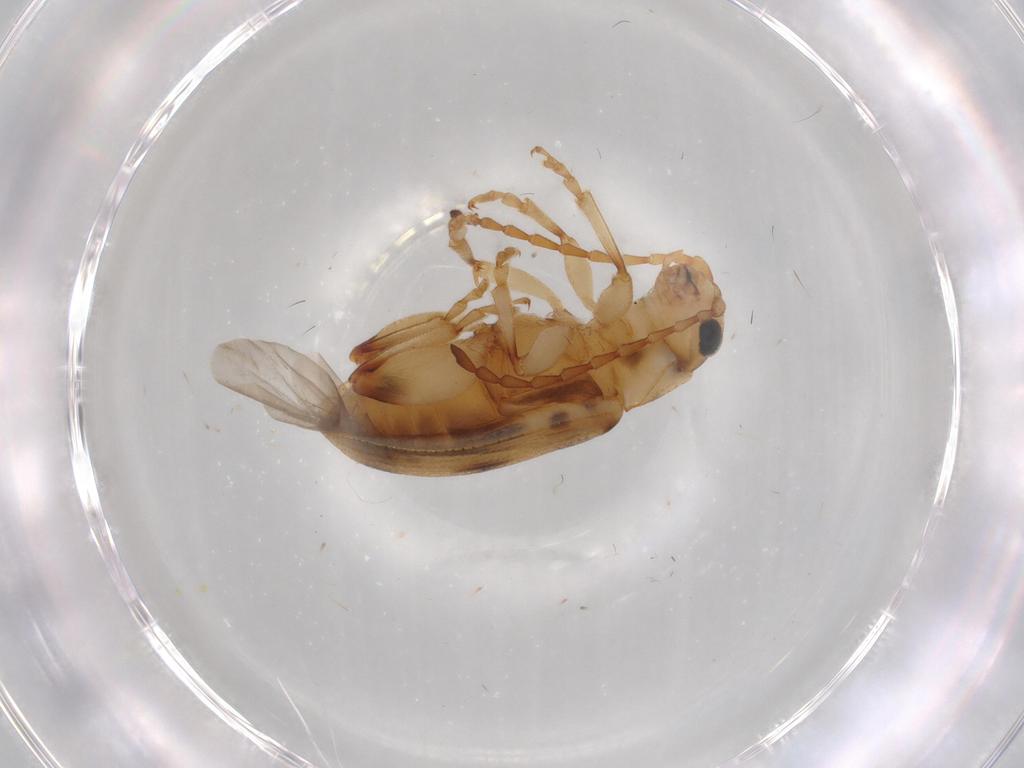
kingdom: Animalia
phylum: Arthropoda
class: Insecta
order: Coleoptera
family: Chrysomelidae
